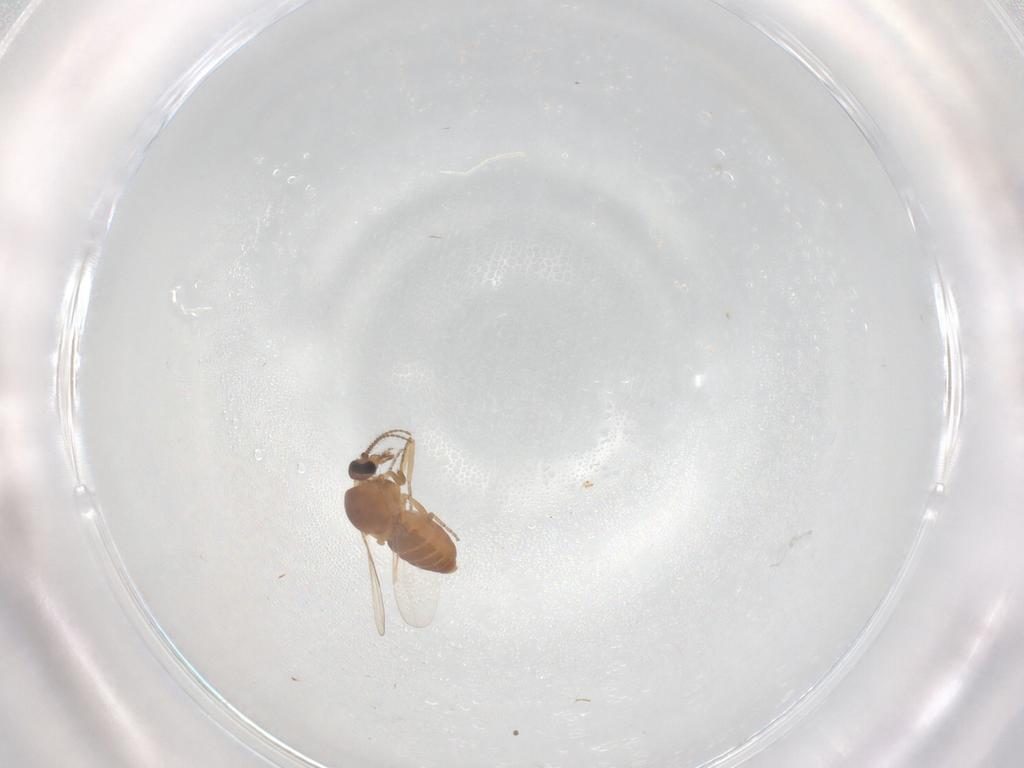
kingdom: Animalia
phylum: Arthropoda
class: Insecta
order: Diptera
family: Ceratopogonidae
